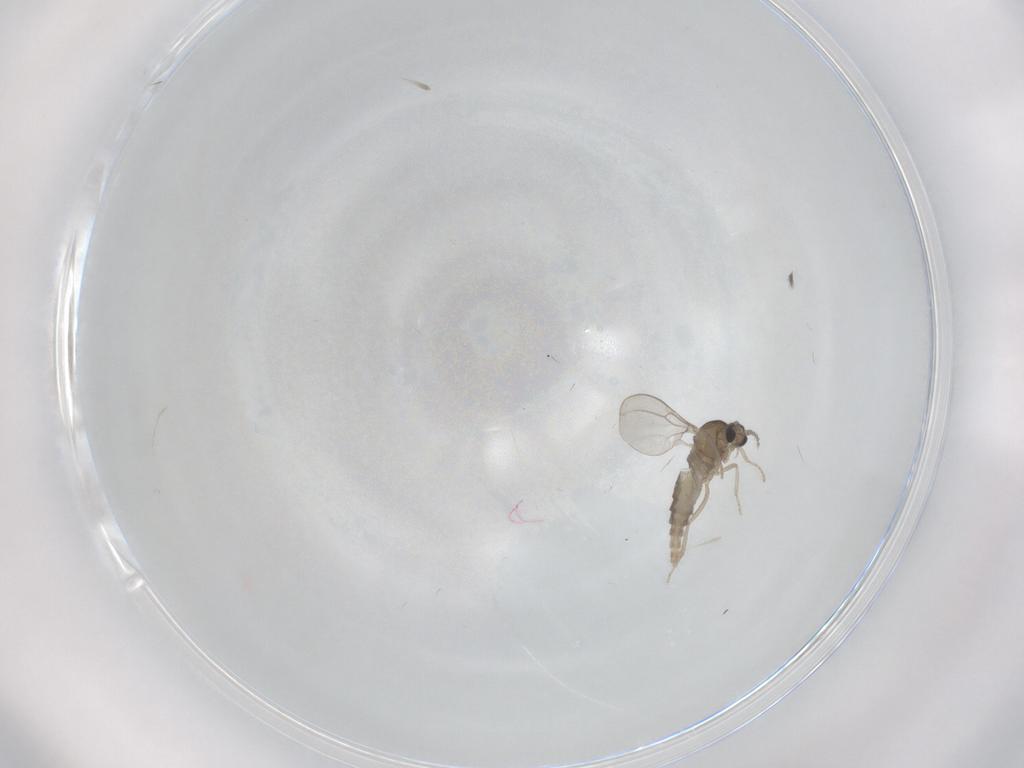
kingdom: Animalia
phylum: Arthropoda
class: Insecta
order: Diptera
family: Cecidomyiidae
